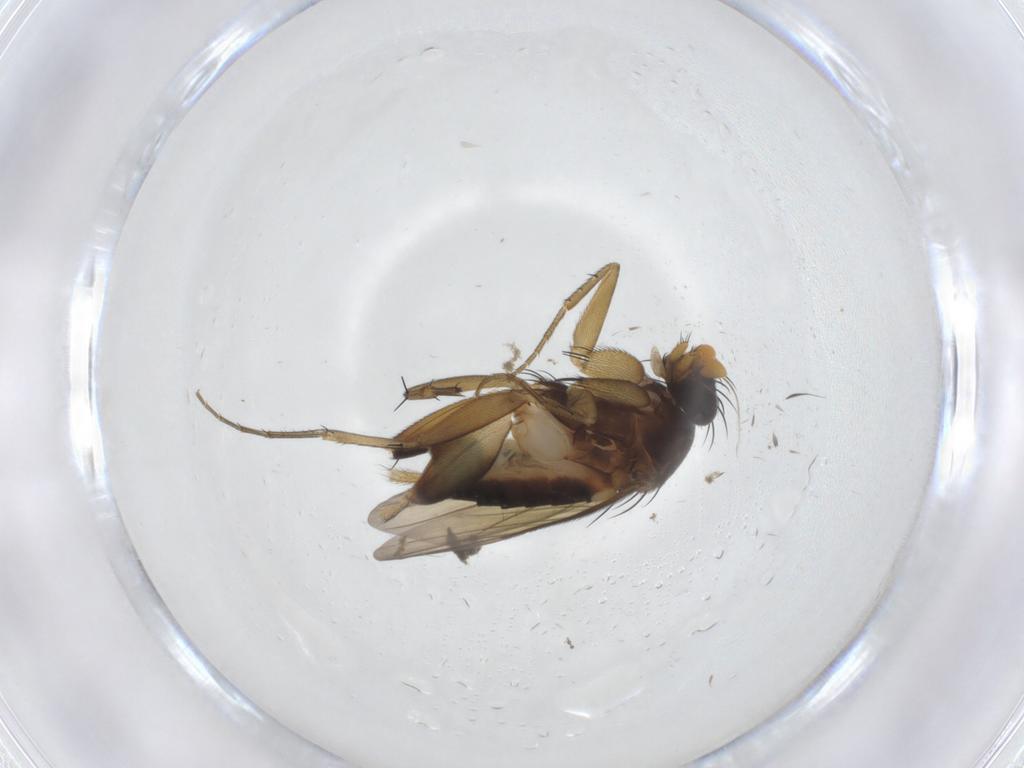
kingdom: Animalia
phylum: Arthropoda
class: Insecta
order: Diptera
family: Phoridae
